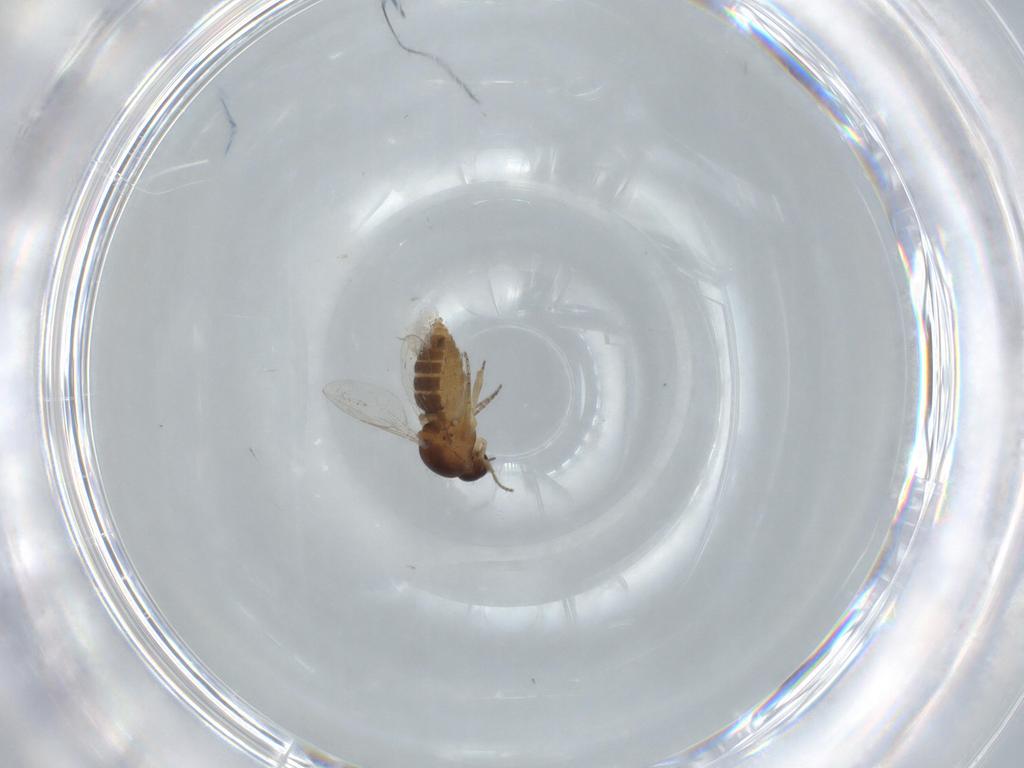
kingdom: Animalia
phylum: Arthropoda
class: Insecta
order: Diptera
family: Ceratopogonidae
